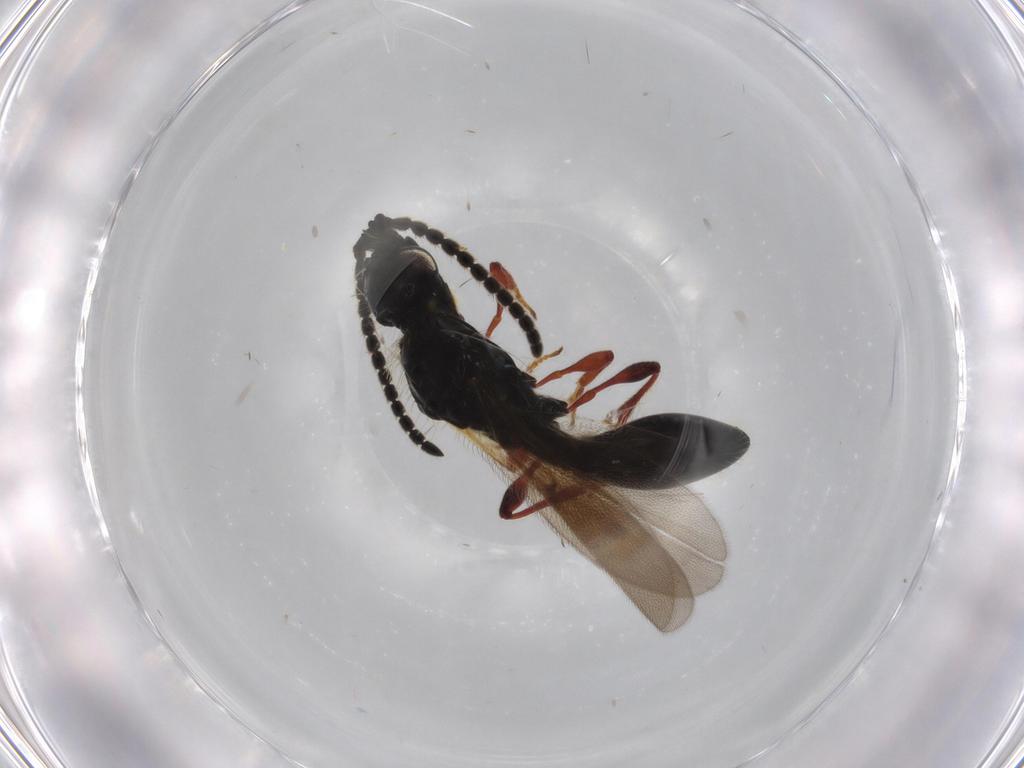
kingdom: Animalia
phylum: Arthropoda
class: Insecta
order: Hymenoptera
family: Diapriidae
